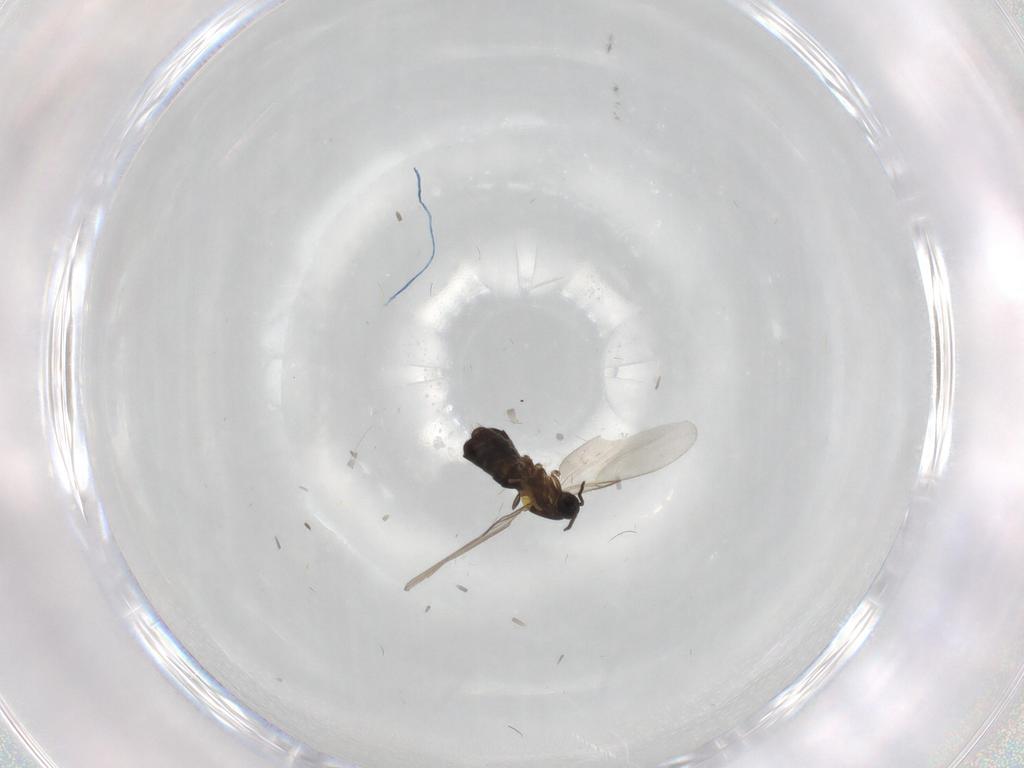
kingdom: Animalia
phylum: Arthropoda
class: Insecta
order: Diptera
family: Scatopsidae
